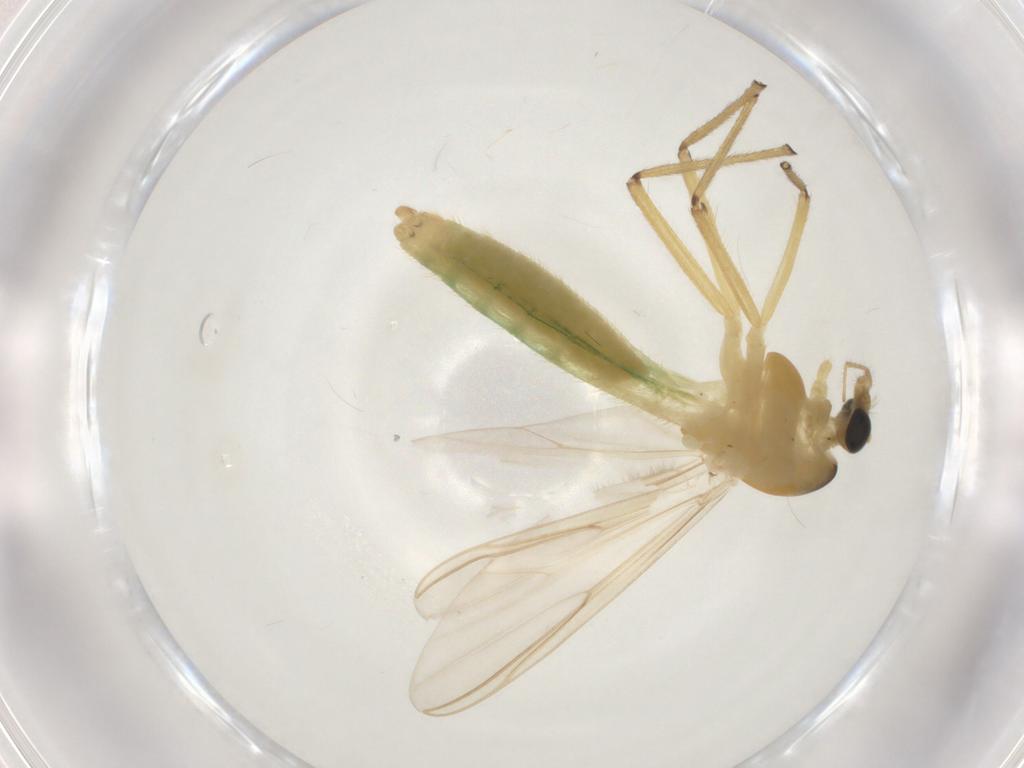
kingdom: Animalia
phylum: Arthropoda
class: Insecta
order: Diptera
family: Chironomidae
